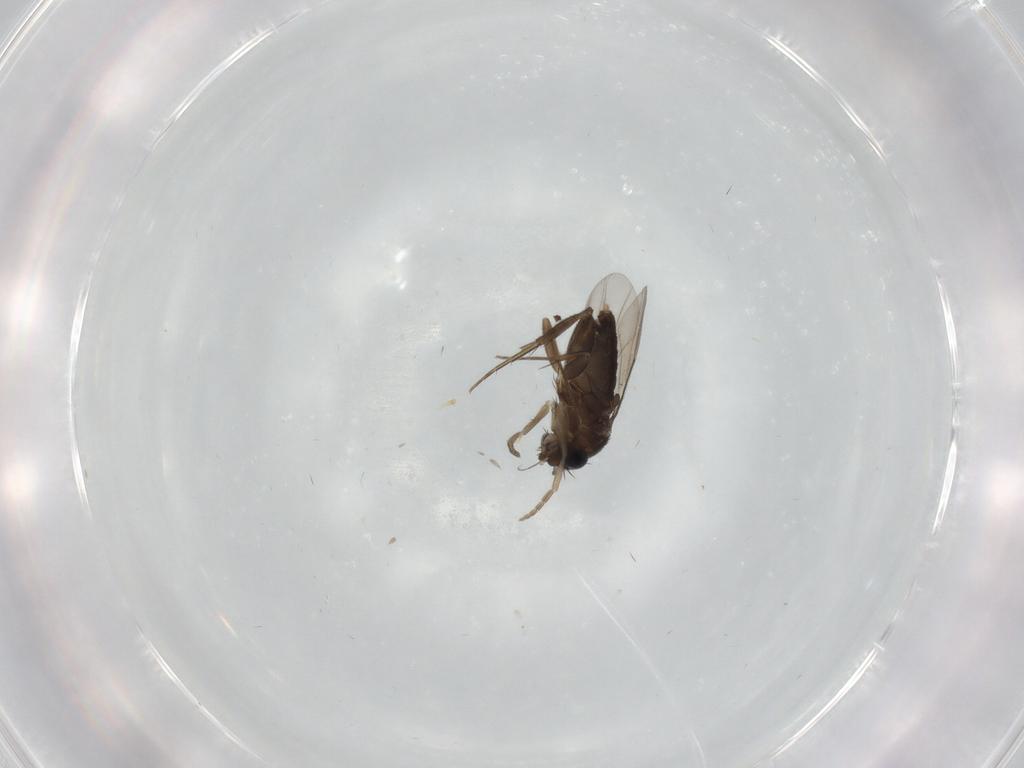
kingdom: Animalia
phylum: Arthropoda
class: Insecta
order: Diptera
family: Phoridae
